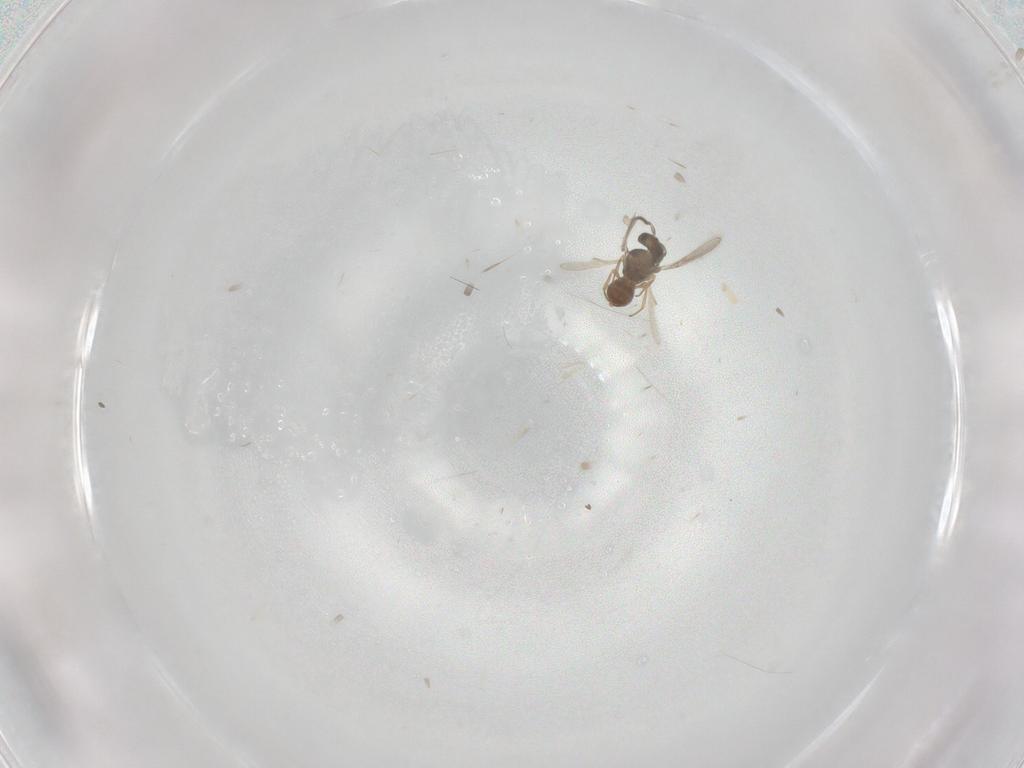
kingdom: Animalia
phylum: Arthropoda
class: Insecta
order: Hymenoptera
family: Scelionidae
